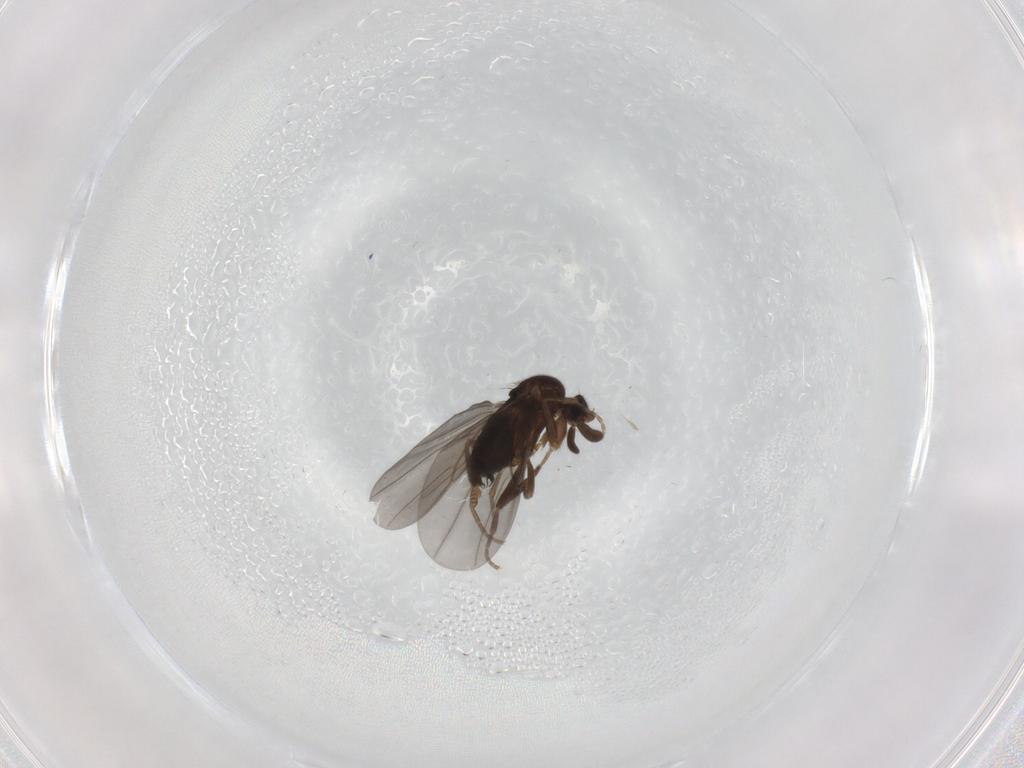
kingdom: Animalia
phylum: Arthropoda
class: Insecta
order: Diptera
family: Phoridae
